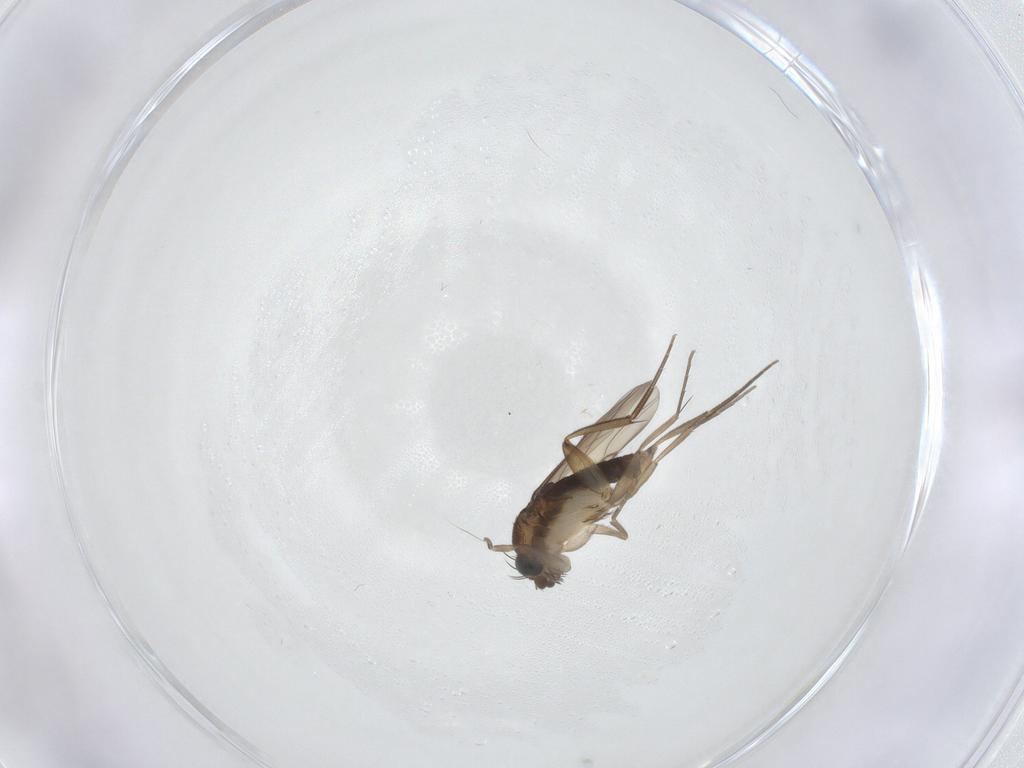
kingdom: Animalia
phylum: Arthropoda
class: Insecta
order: Diptera
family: Phoridae
